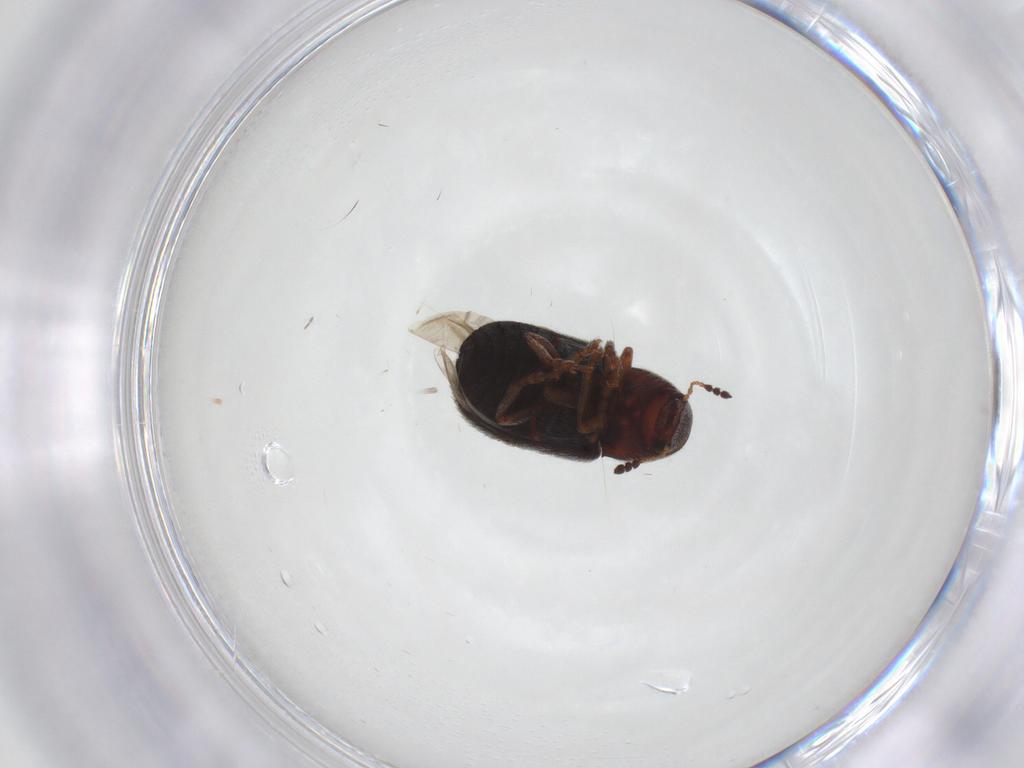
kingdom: Animalia
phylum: Arthropoda
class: Insecta
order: Coleoptera
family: Anthribidae
